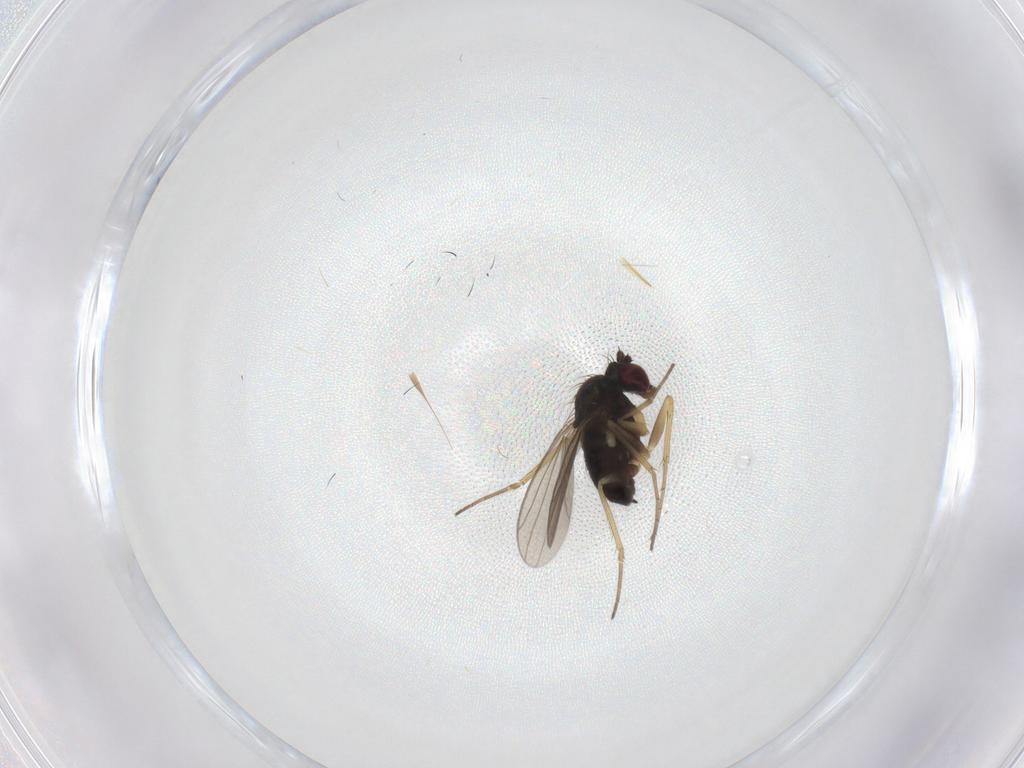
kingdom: Animalia
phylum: Arthropoda
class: Insecta
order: Diptera
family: Dolichopodidae
